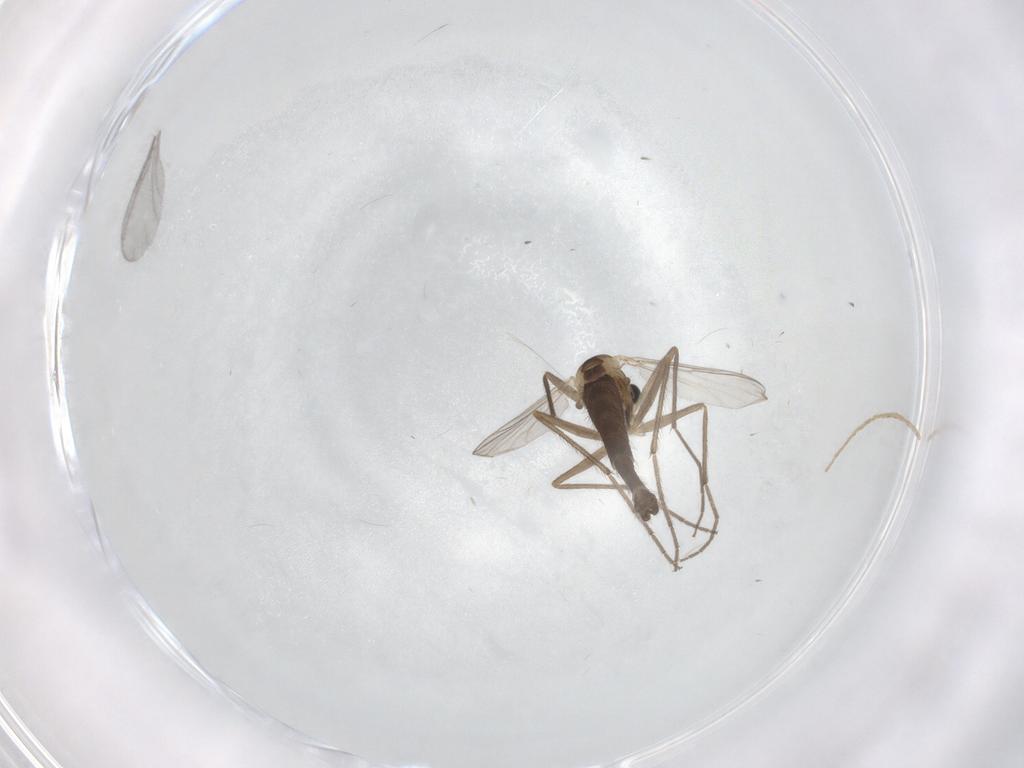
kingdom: Animalia
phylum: Arthropoda
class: Insecta
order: Diptera
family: Chironomidae
